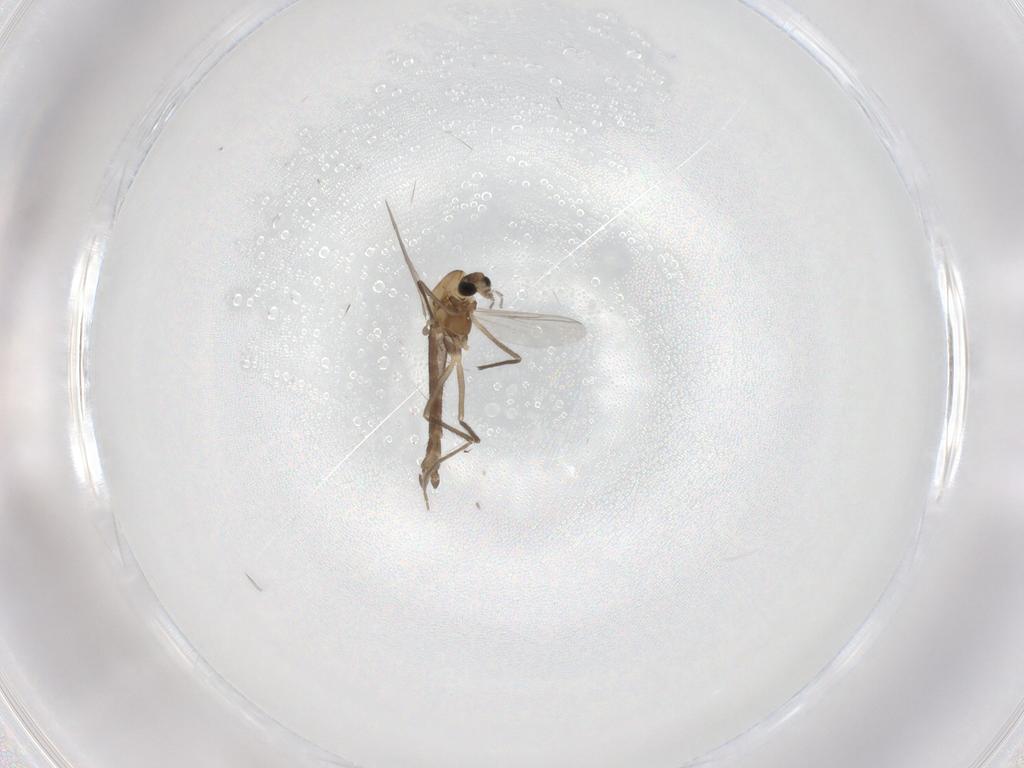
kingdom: Animalia
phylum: Arthropoda
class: Insecta
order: Diptera
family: Chironomidae
